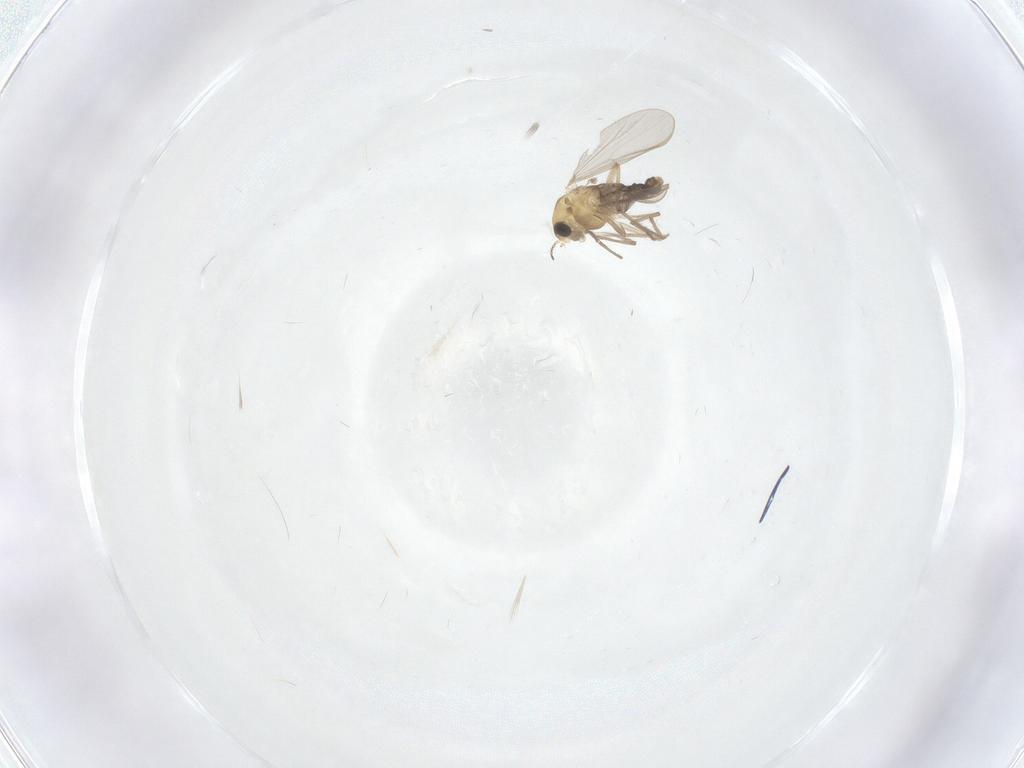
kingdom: Animalia
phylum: Arthropoda
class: Insecta
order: Diptera
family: Chironomidae
